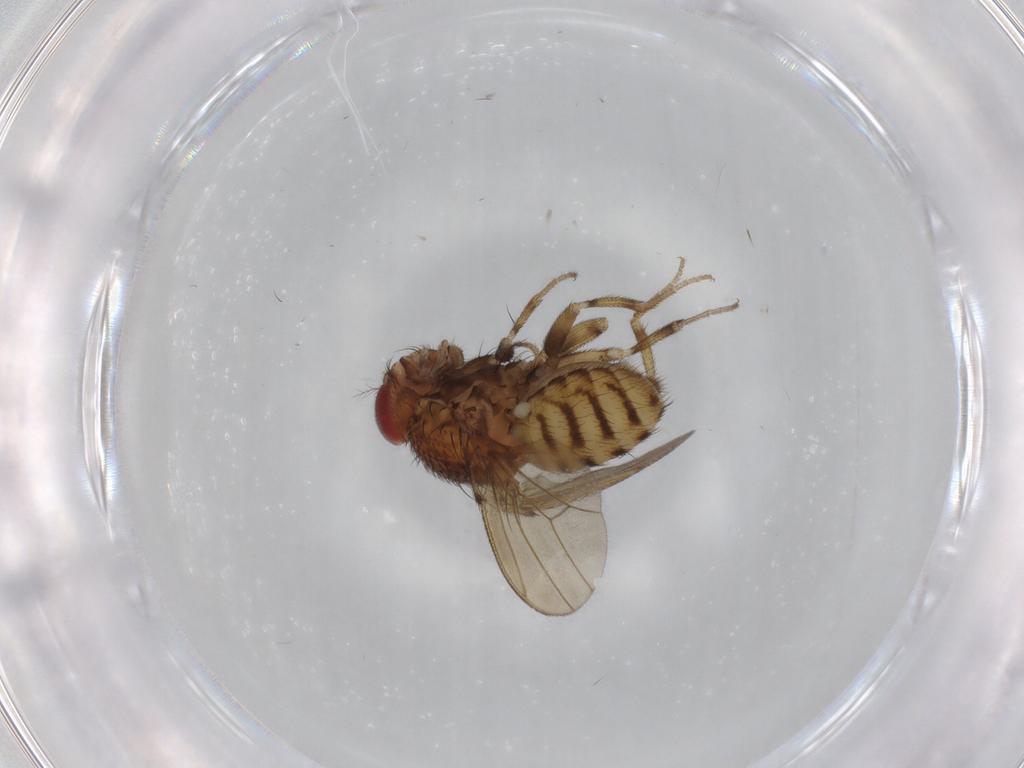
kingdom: Animalia
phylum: Arthropoda
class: Insecta
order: Diptera
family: Drosophilidae
